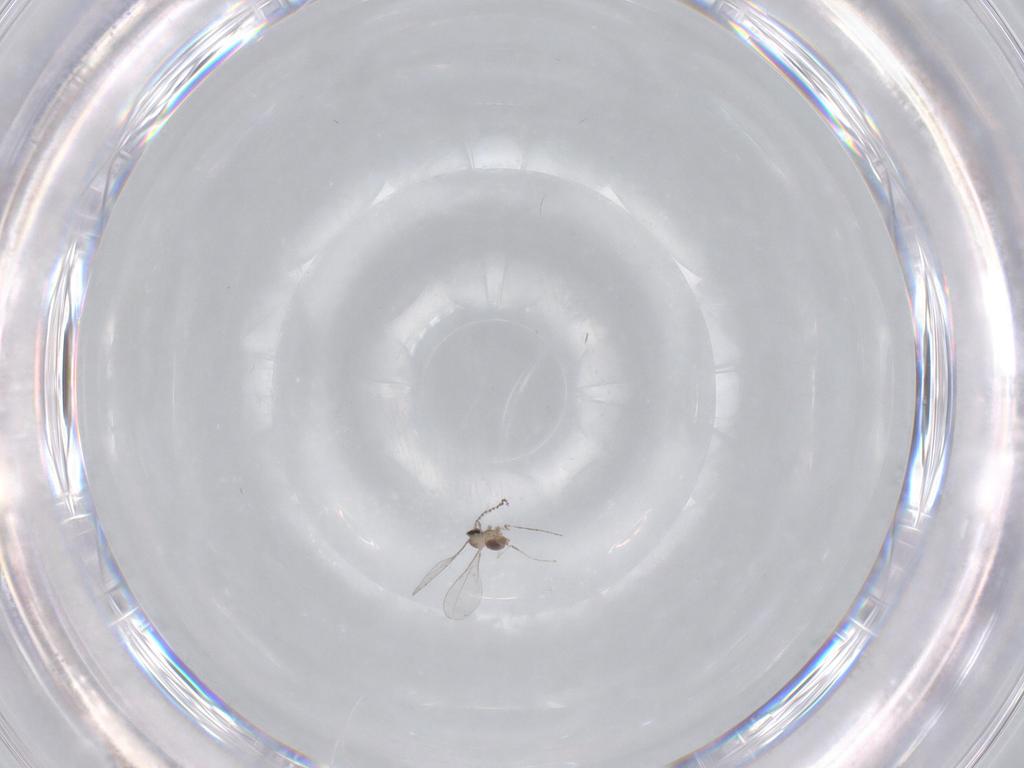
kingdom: Animalia
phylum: Arthropoda
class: Insecta
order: Diptera
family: Cecidomyiidae
